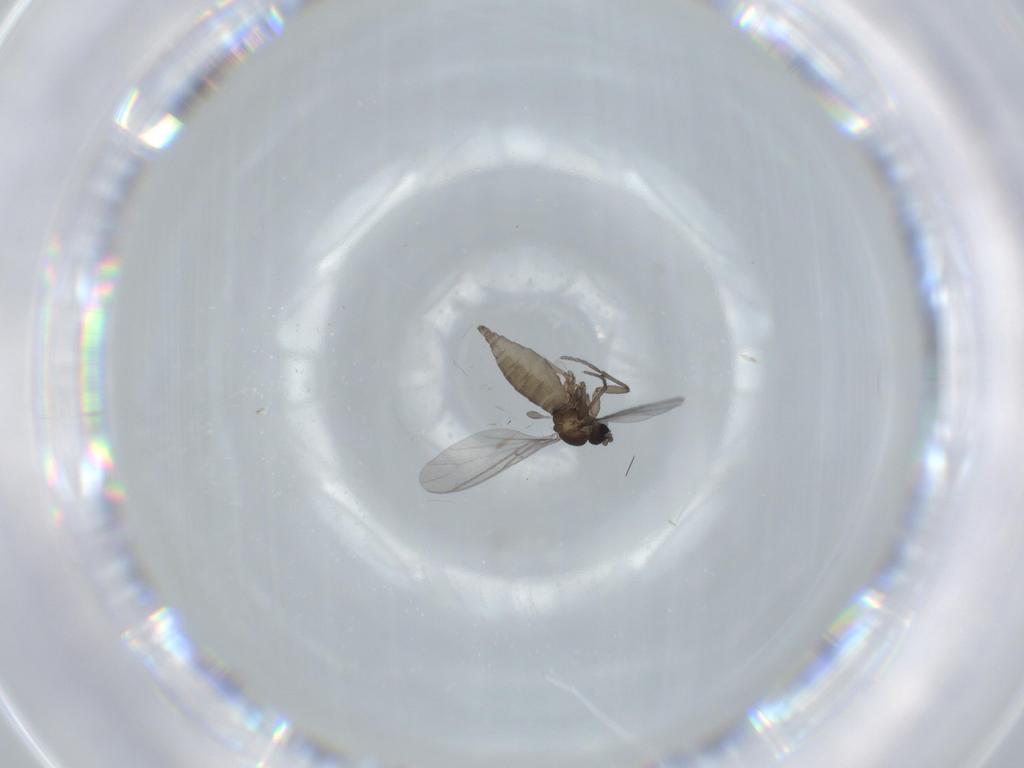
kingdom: Animalia
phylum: Arthropoda
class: Insecta
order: Diptera
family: Sciaridae
